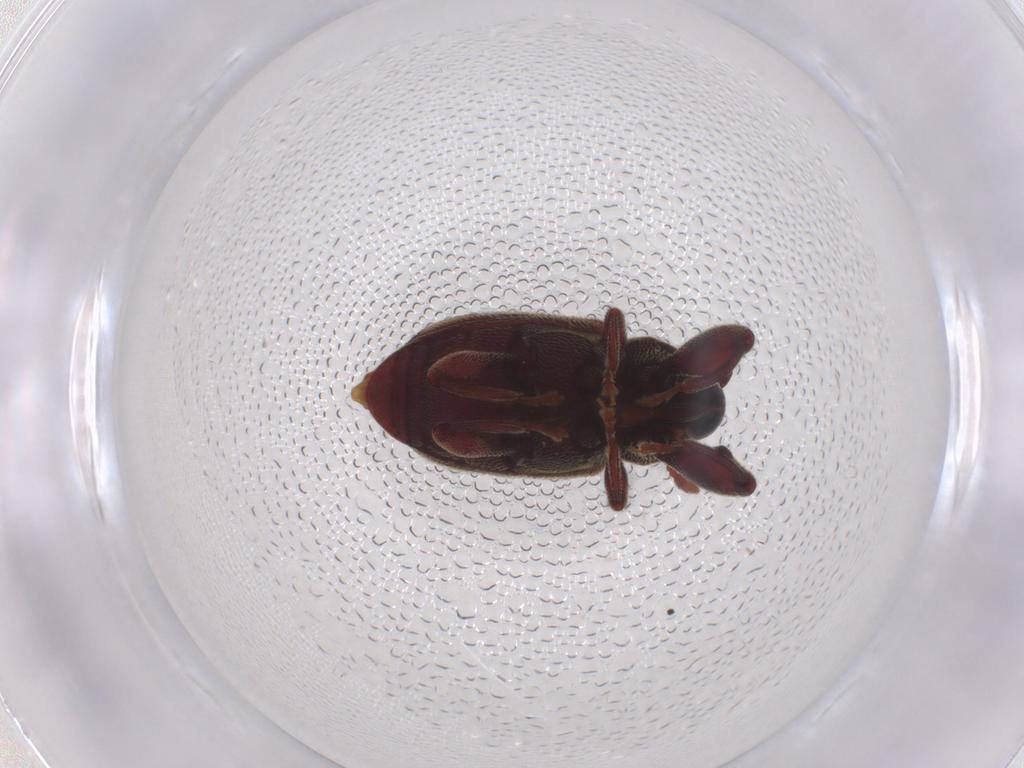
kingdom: Animalia
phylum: Arthropoda
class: Insecta
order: Coleoptera
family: Curculionidae
